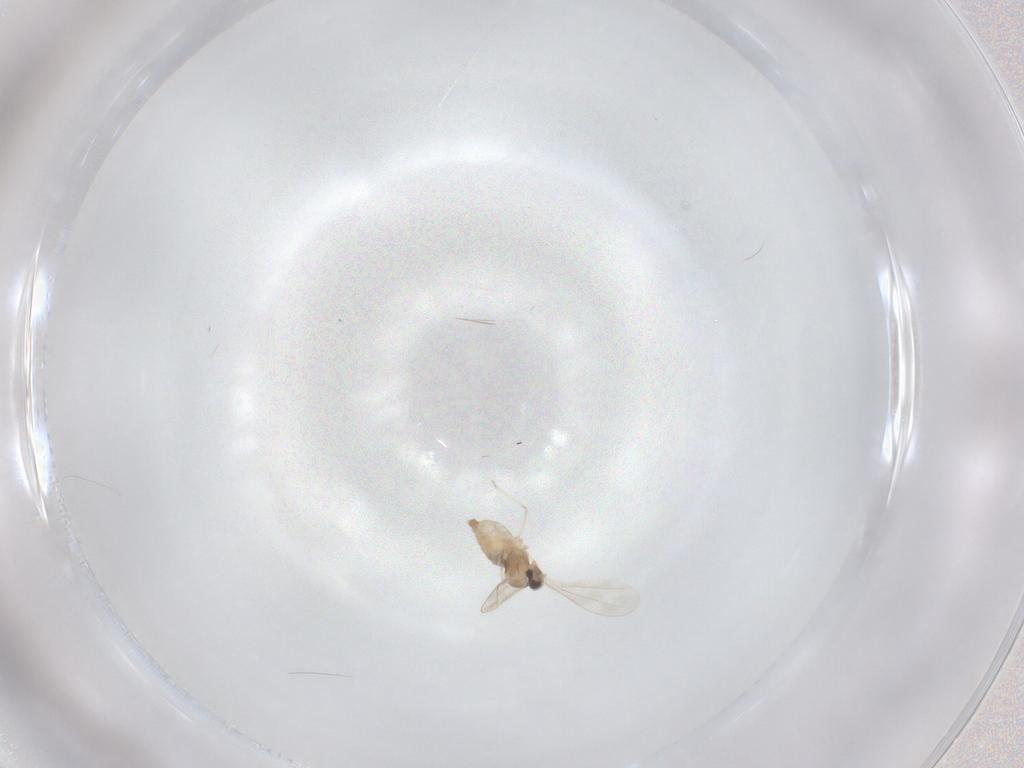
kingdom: Animalia
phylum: Arthropoda
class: Insecta
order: Diptera
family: Cecidomyiidae
